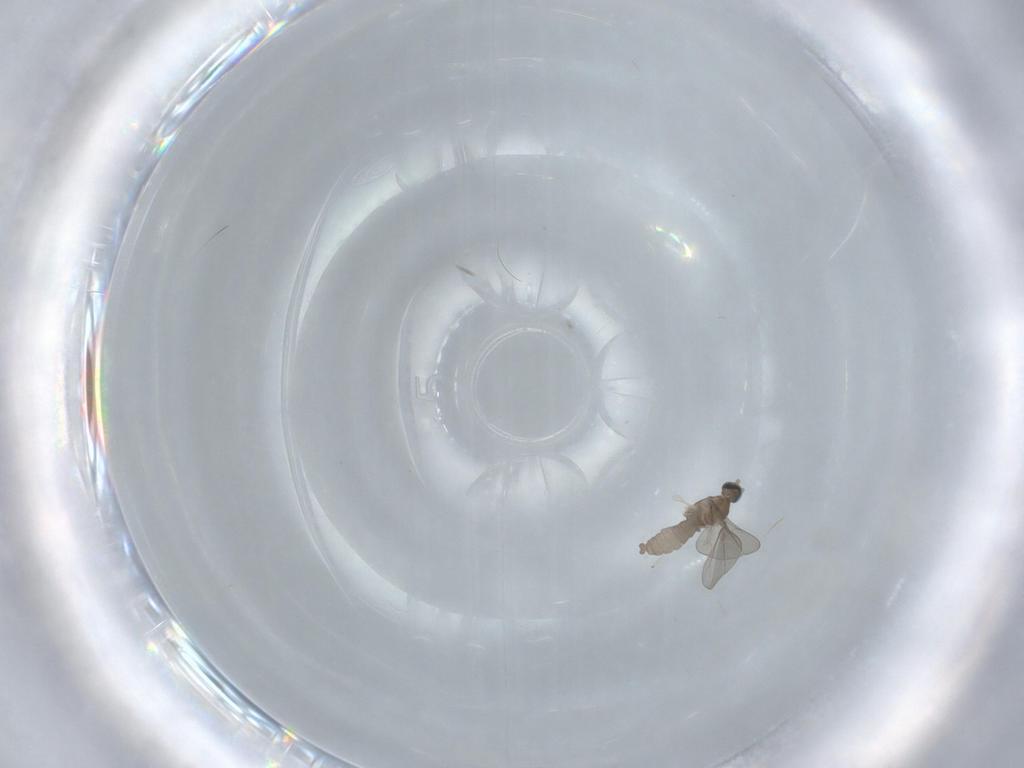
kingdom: Animalia
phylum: Arthropoda
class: Insecta
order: Diptera
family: Cecidomyiidae
